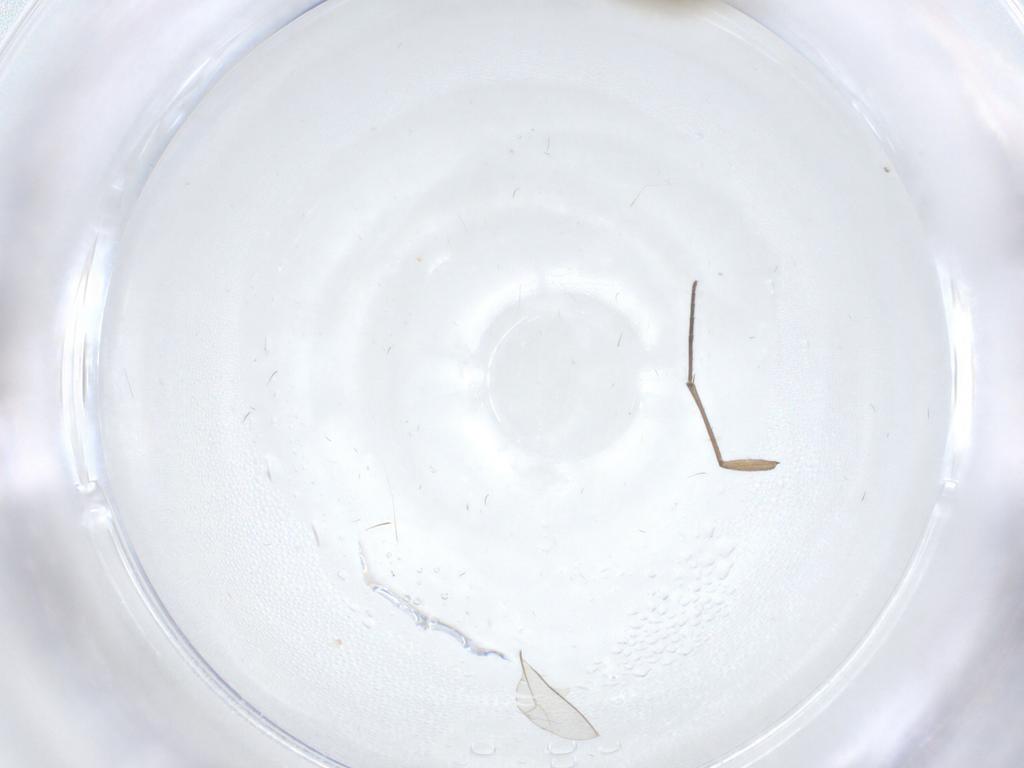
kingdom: Animalia
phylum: Arthropoda
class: Insecta
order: Diptera
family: Sciaridae
